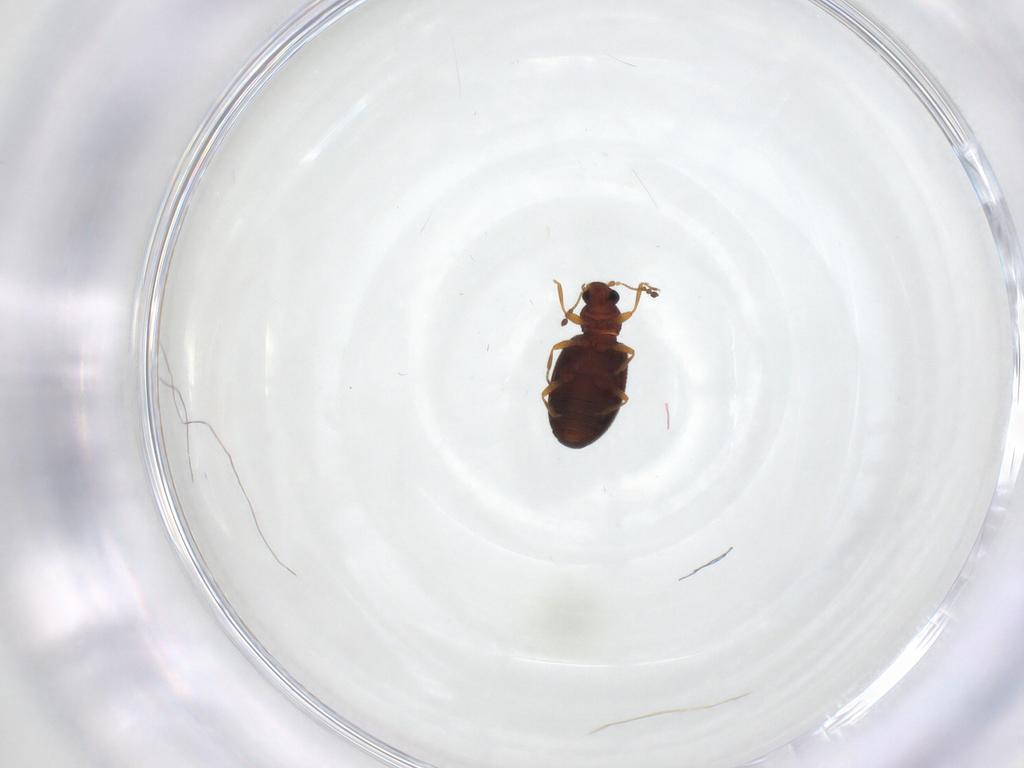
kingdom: Animalia
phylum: Arthropoda
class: Insecta
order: Coleoptera
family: Latridiidae
